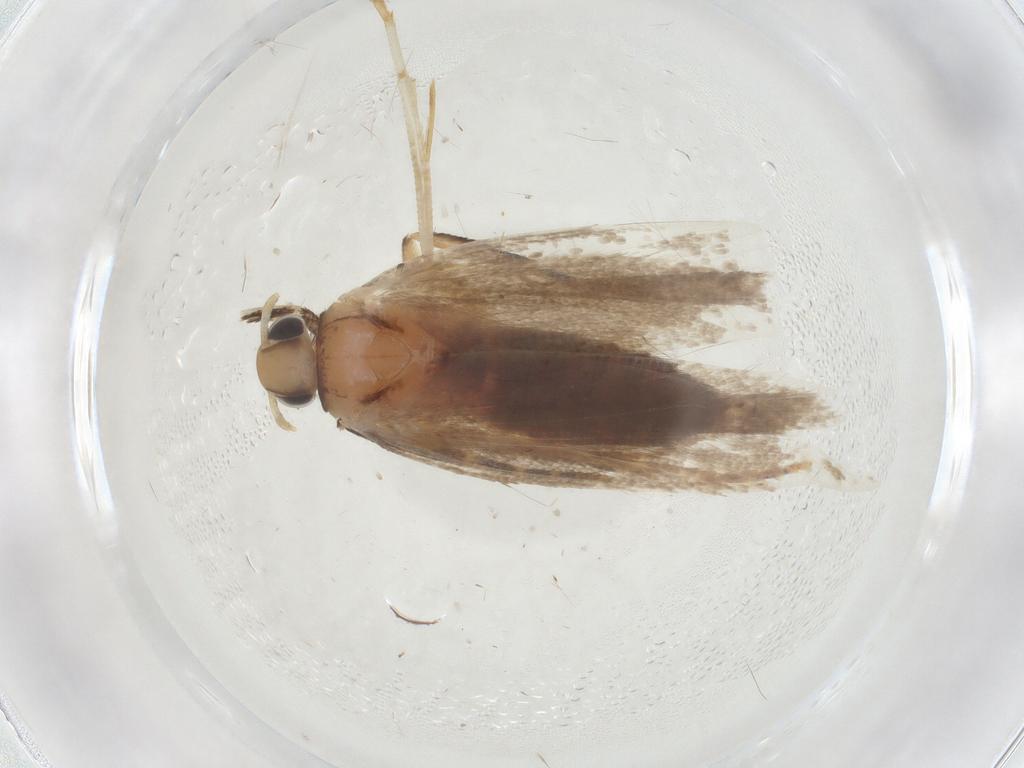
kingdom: Animalia
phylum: Arthropoda
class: Insecta
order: Lepidoptera
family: Gelechiidae
